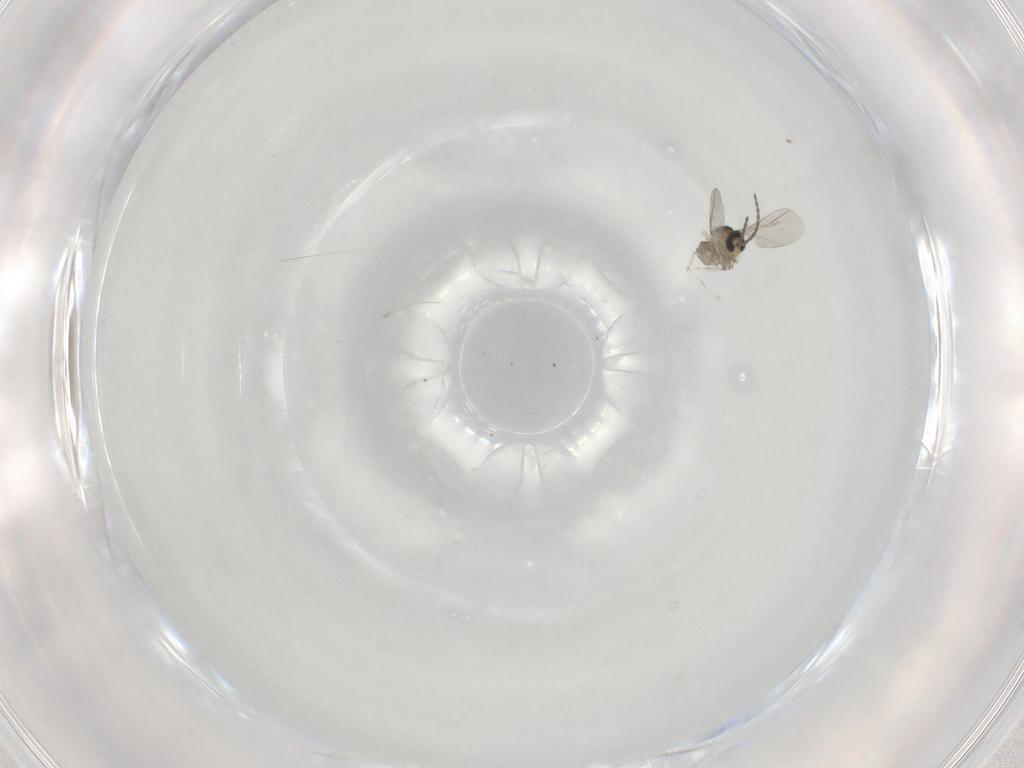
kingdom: Animalia
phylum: Arthropoda
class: Insecta
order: Diptera
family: Cecidomyiidae
